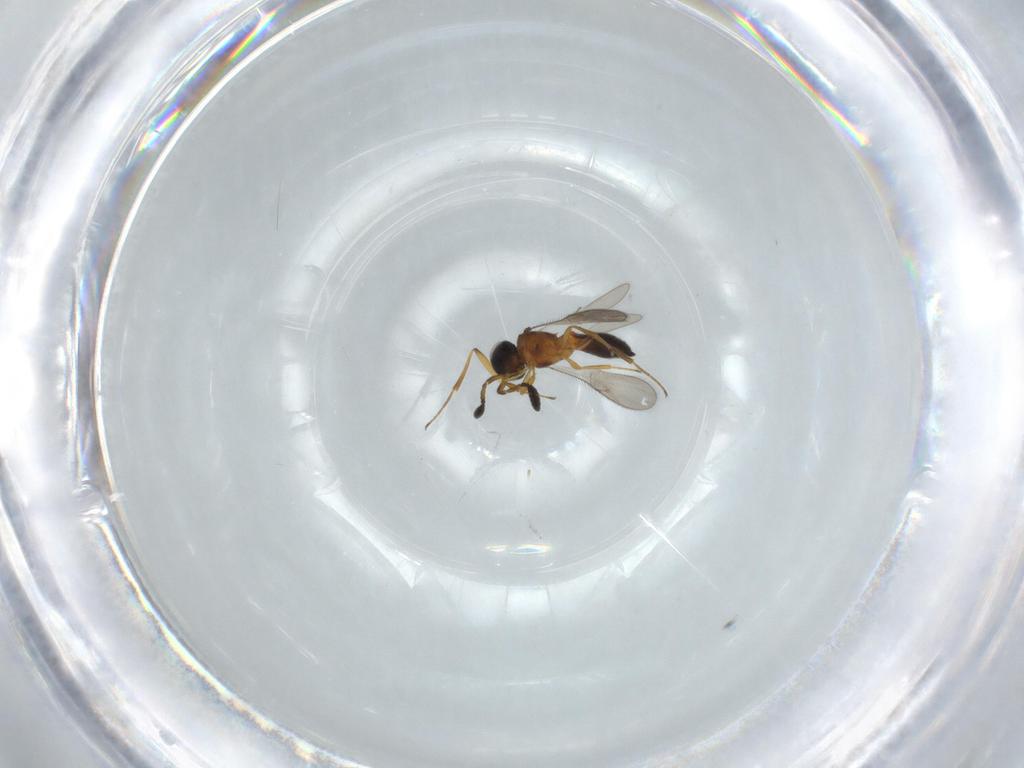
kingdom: Animalia
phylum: Arthropoda
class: Insecta
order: Hymenoptera
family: Scelionidae
